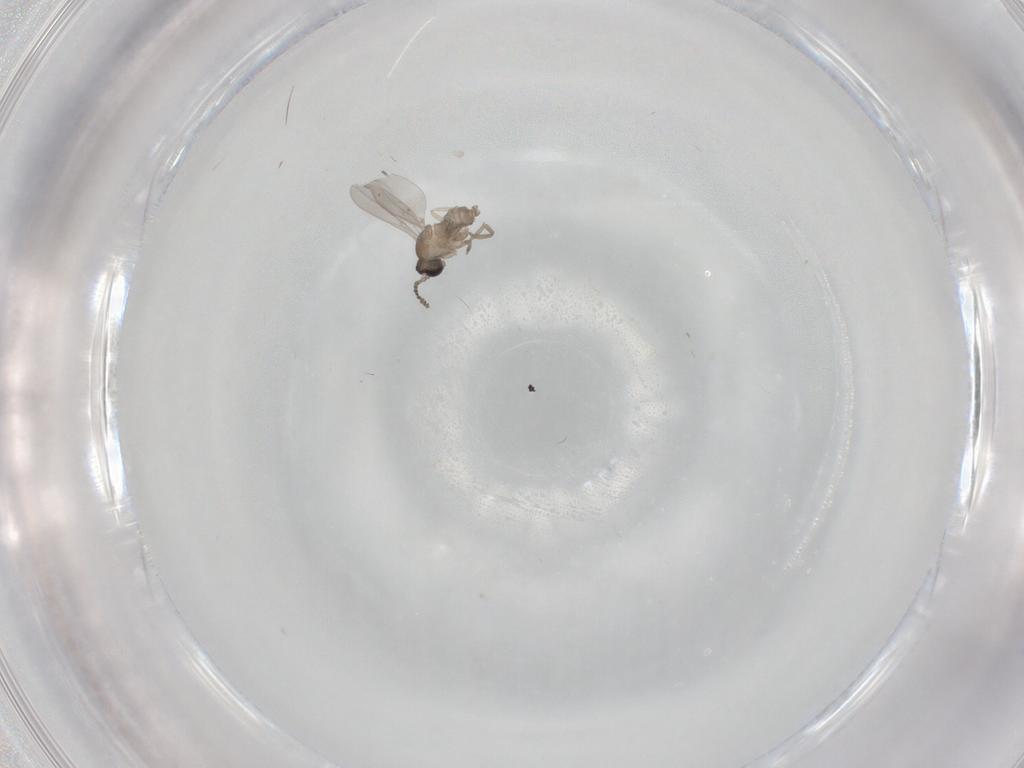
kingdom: Animalia
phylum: Arthropoda
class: Insecta
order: Diptera
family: Cecidomyiidae
